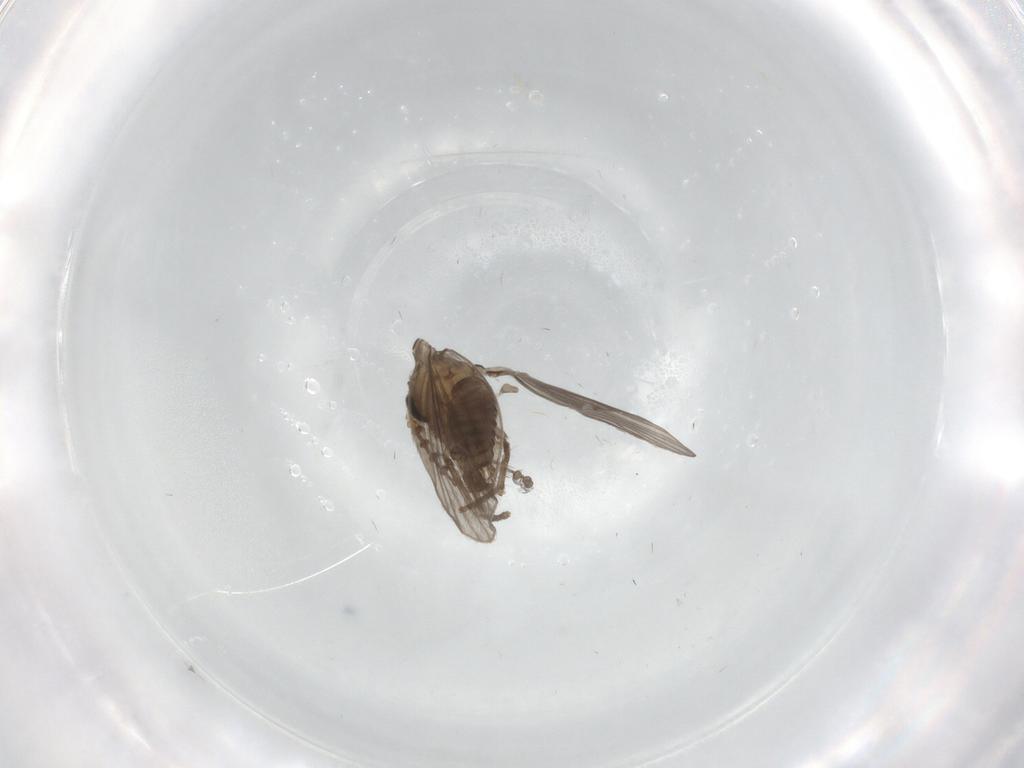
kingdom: Animalia
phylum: Arthropoda
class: Insecta
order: Diptera
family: Psychodidae
